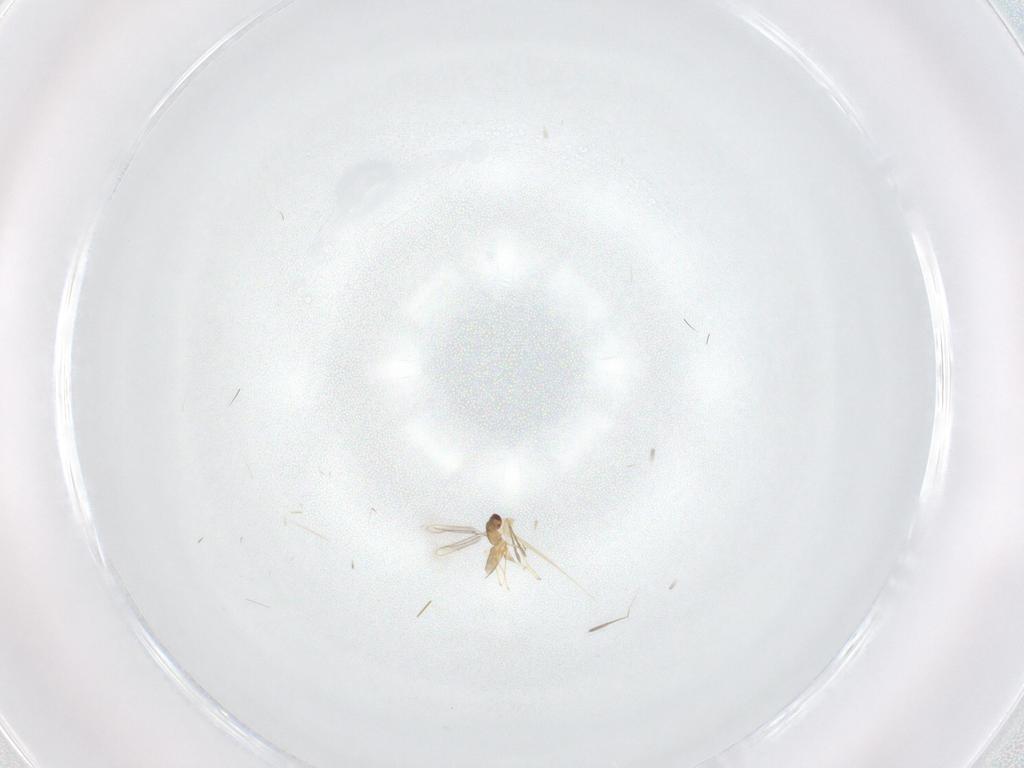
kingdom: Animalia
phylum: Arthropoda
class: Insecta
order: Hymenoptera
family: Mymaridae
